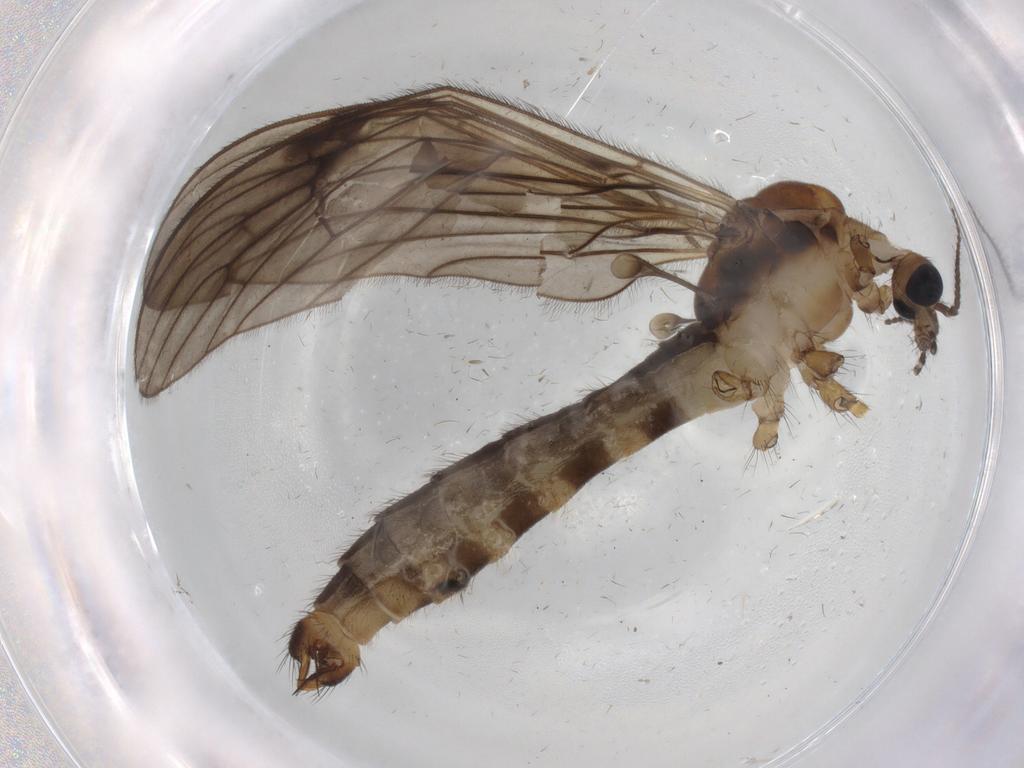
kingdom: Animalia
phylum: Arthropoda
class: Insecta
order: Diptera
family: Limoniidae
